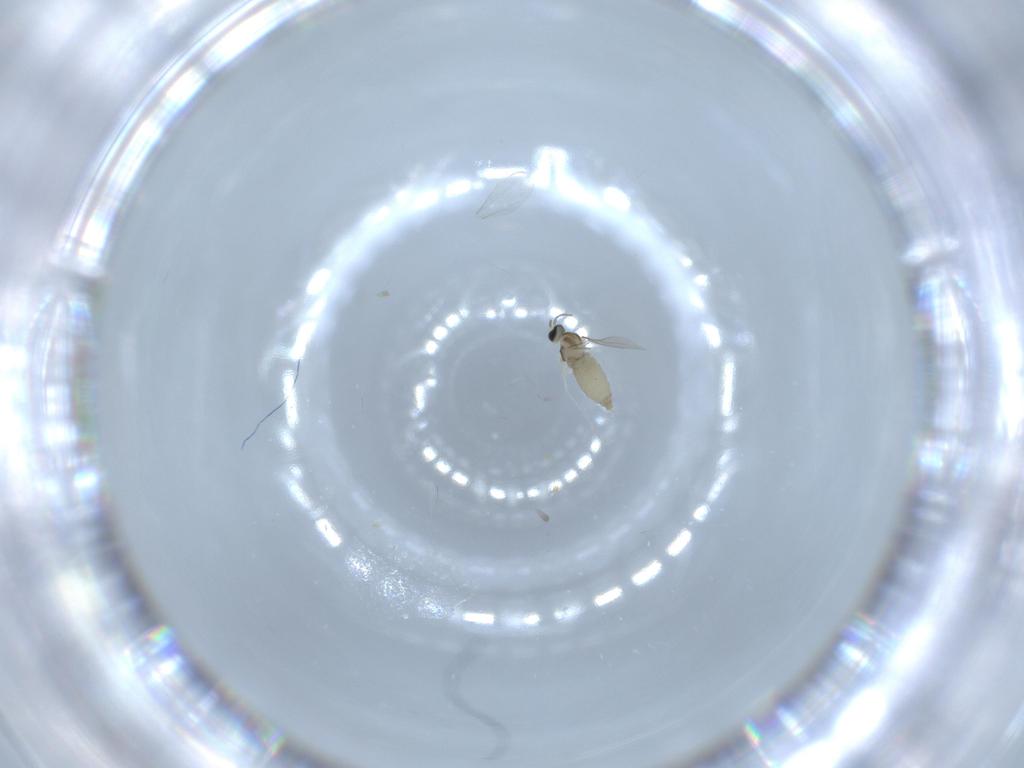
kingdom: Animalia
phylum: Arthropoda
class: Insecta
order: Diptera
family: Cecidomyiidae
